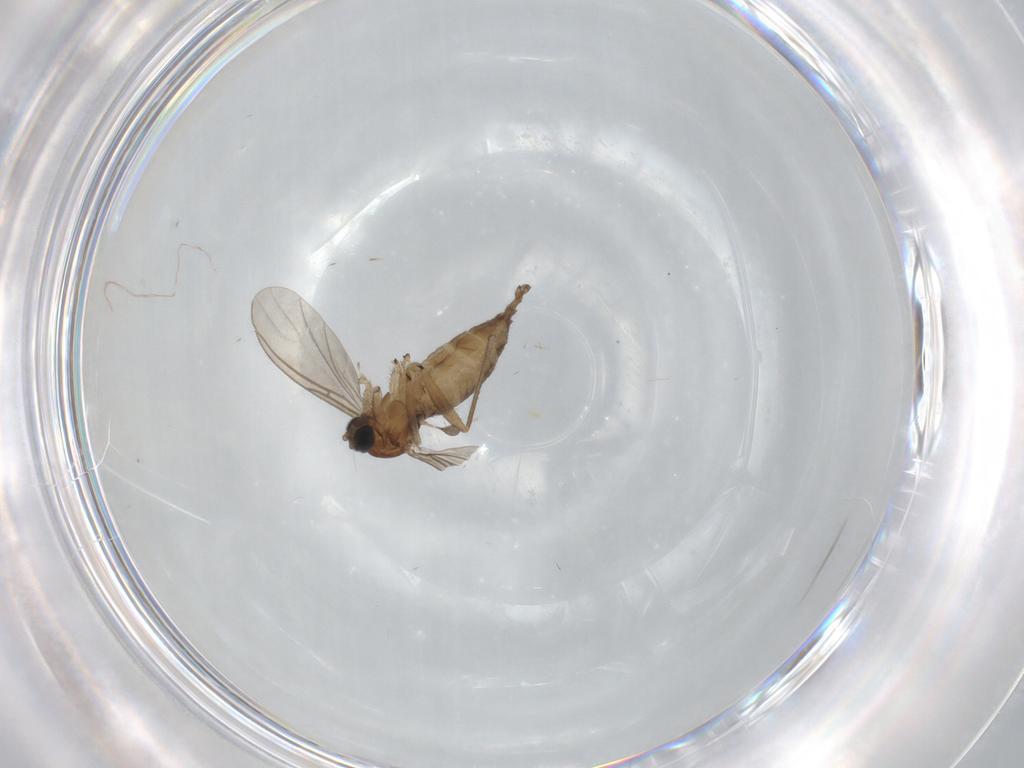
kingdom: Animalia
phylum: Arthropoda
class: Insecta
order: Diptera
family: Sciaridae
